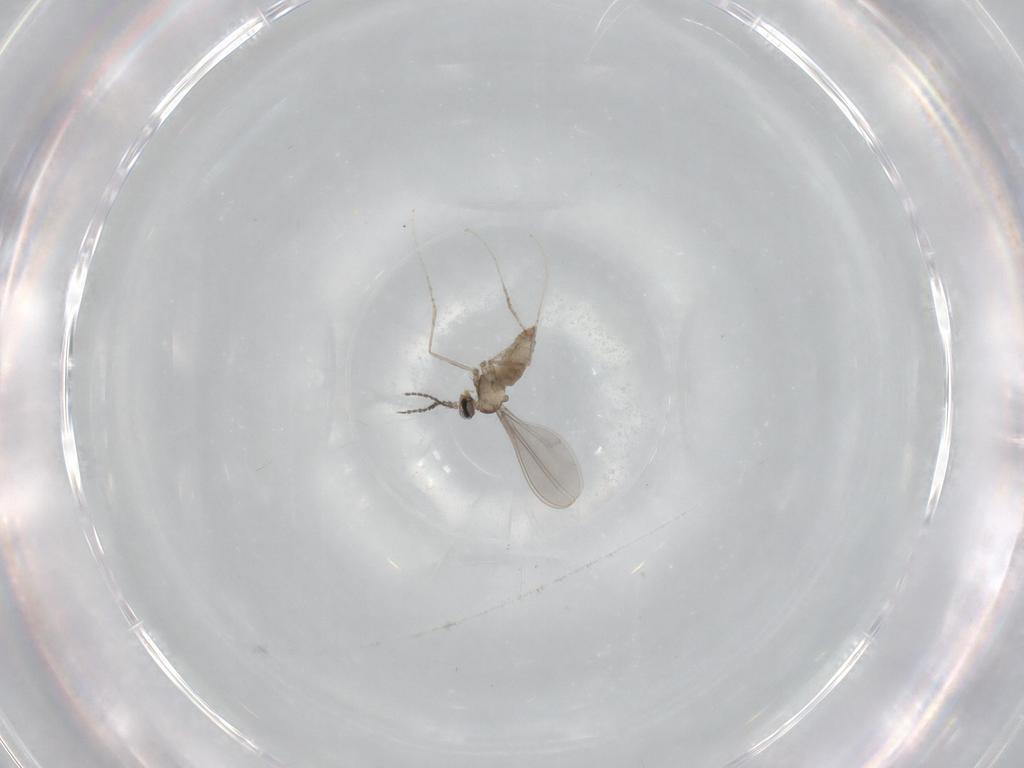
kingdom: Animalia
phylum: Arthropoda
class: Insecta
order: Diptera
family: Cecidomyiidae
